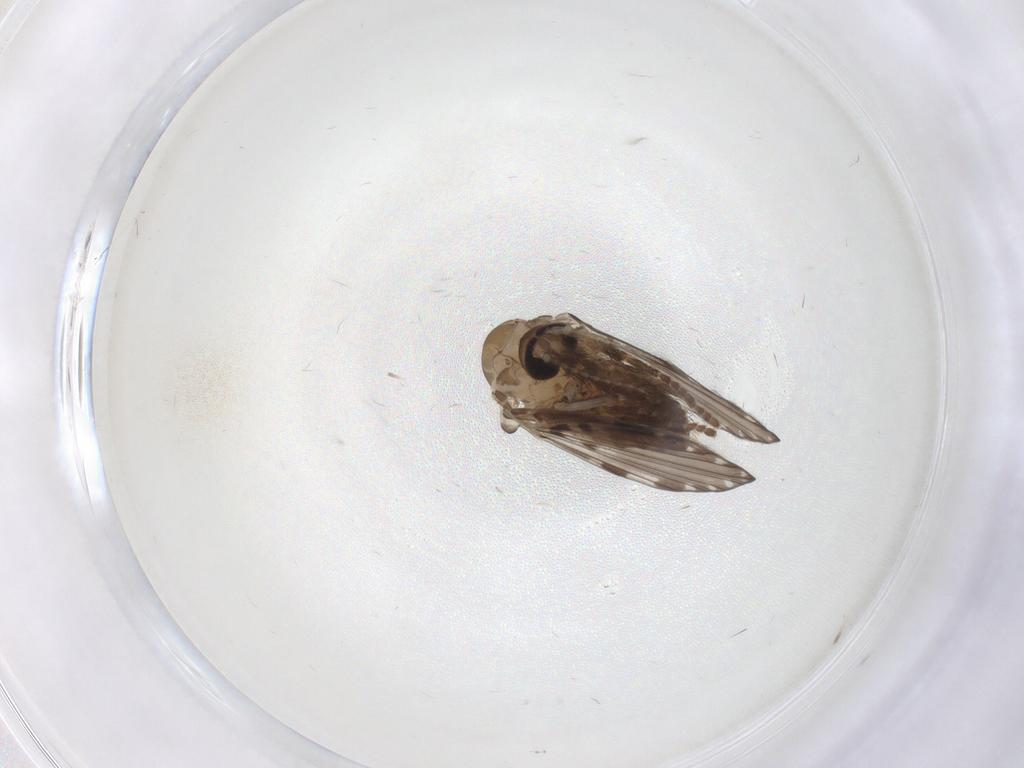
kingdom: Animalia
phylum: Arthropoda
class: Insecta
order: Diptera
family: Psychodidae
